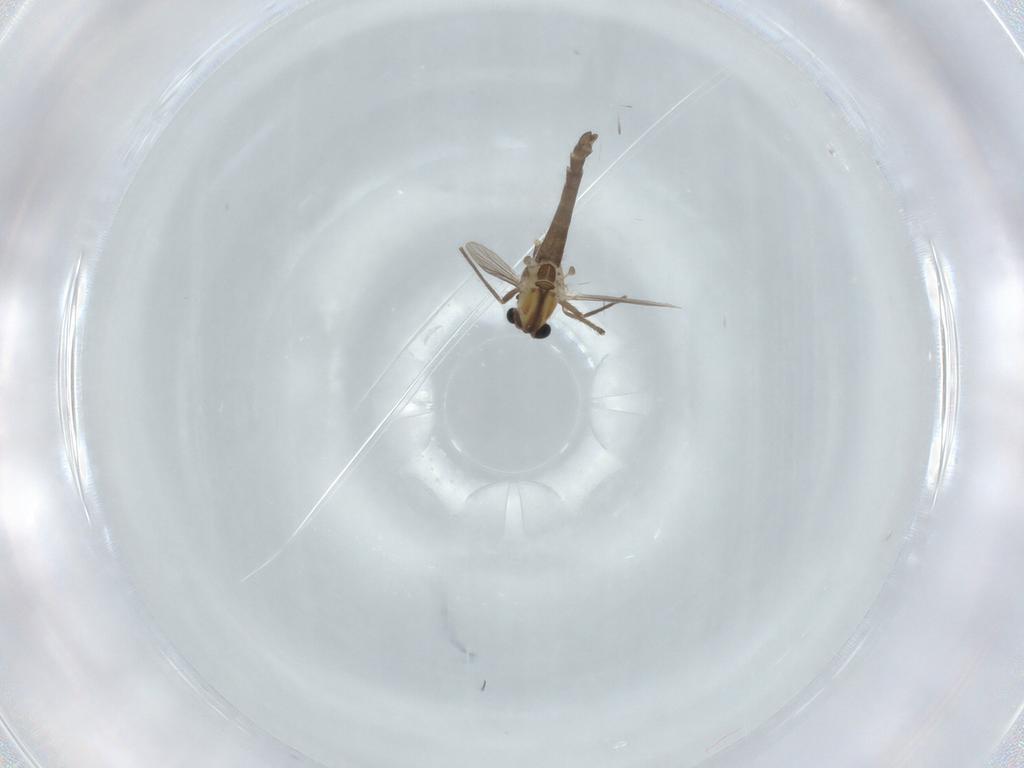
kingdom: Animalia
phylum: Arthropoda
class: Insecta
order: Diptera
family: Chironomidae
